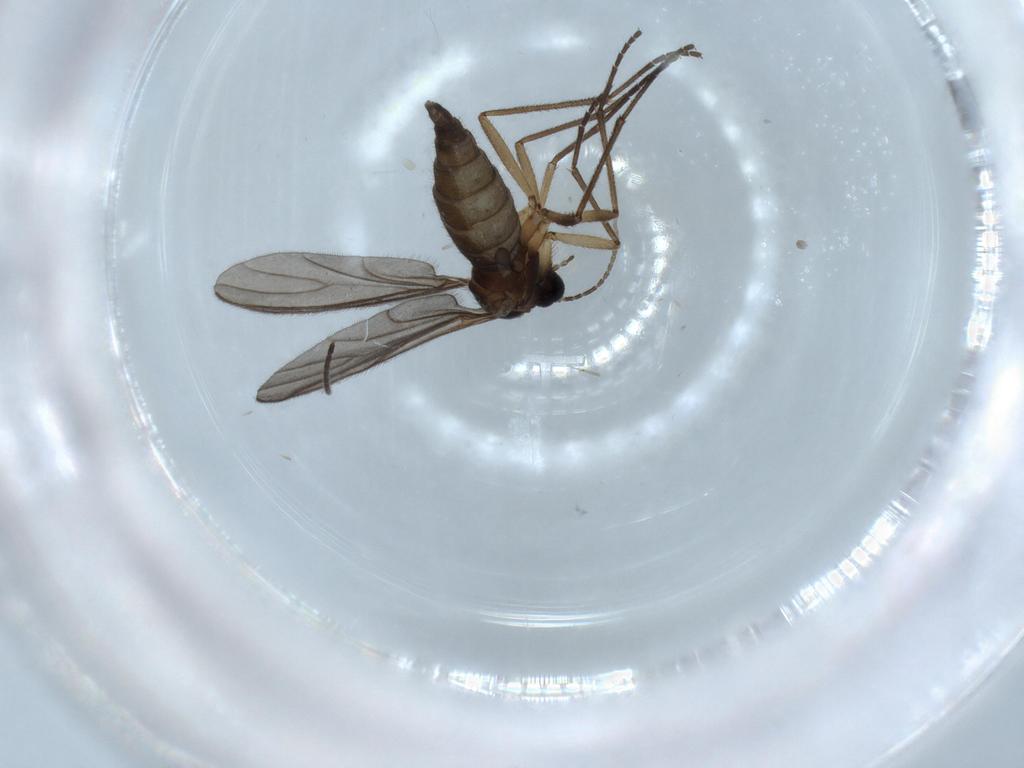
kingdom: Animalia
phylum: Arthropoda
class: Insecta
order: Diptera
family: Sciaridae
